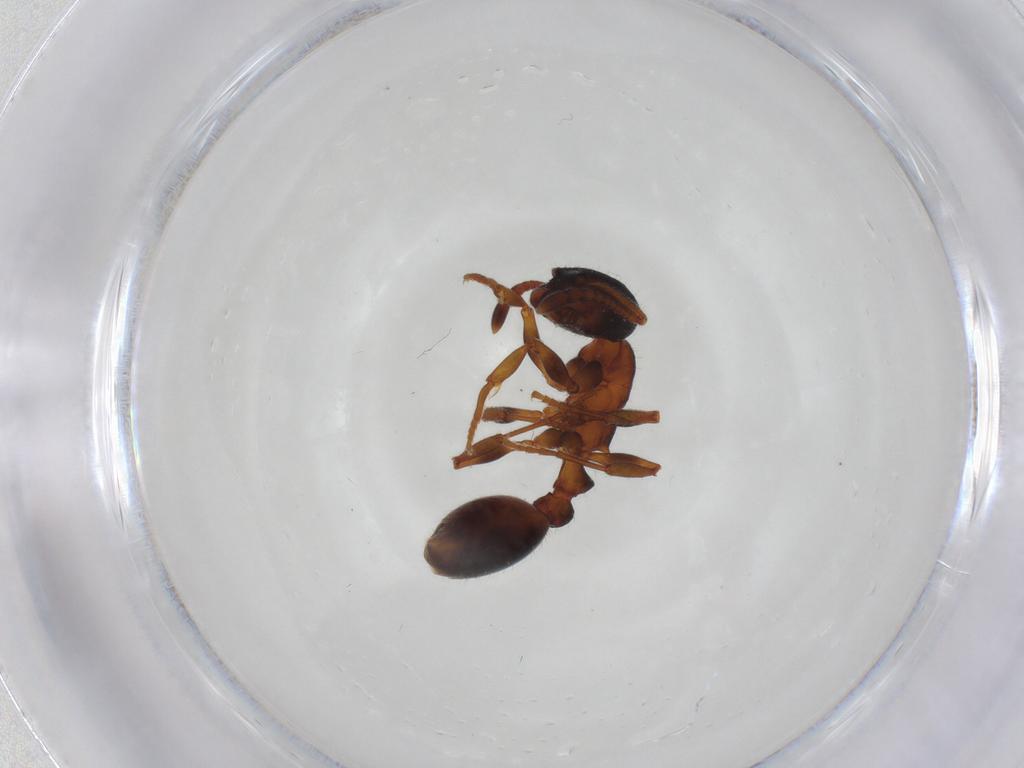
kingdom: Animalia
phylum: Arthropoda
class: Insecta
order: Hymenoptera
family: Formicidae
